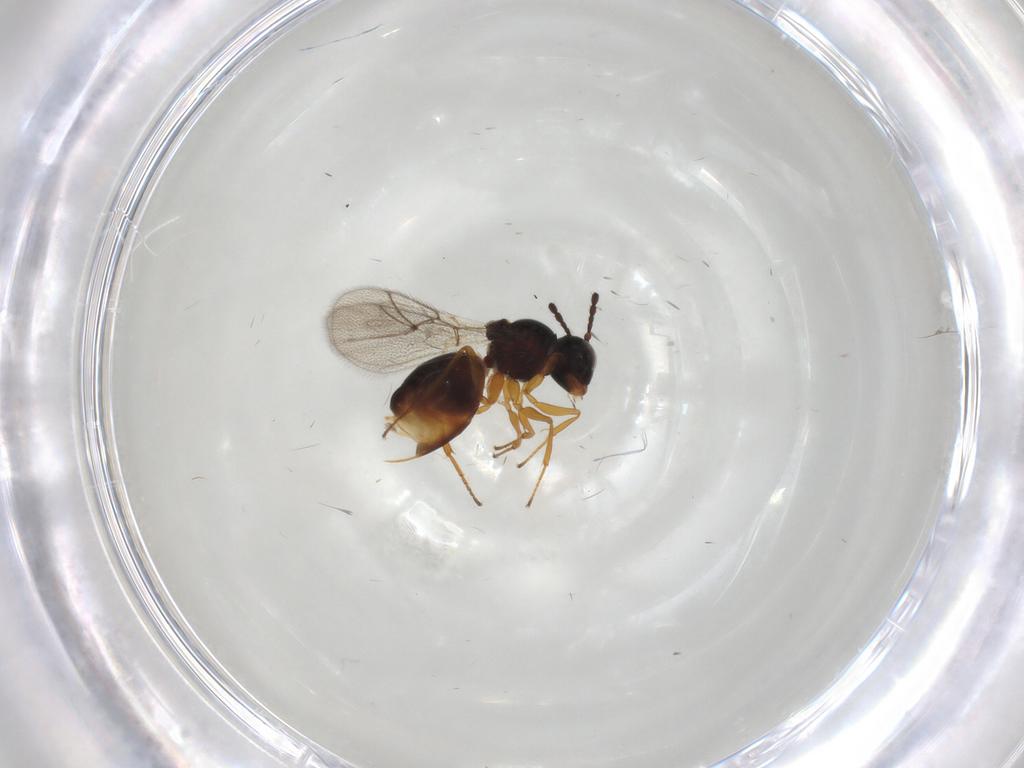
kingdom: Animalia
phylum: Arthropoda
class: Insecta
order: Hymenoptera
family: Figitidae
